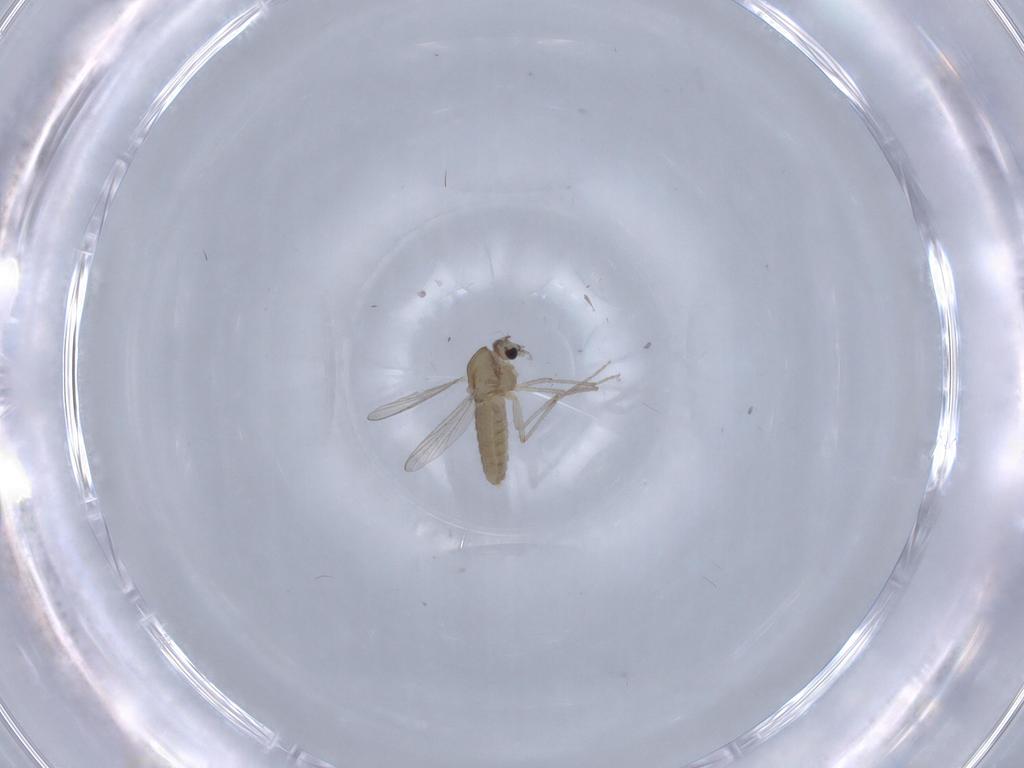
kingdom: Animalia
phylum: Arthropoda
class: Insecta
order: Diptera
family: Chironomidae
